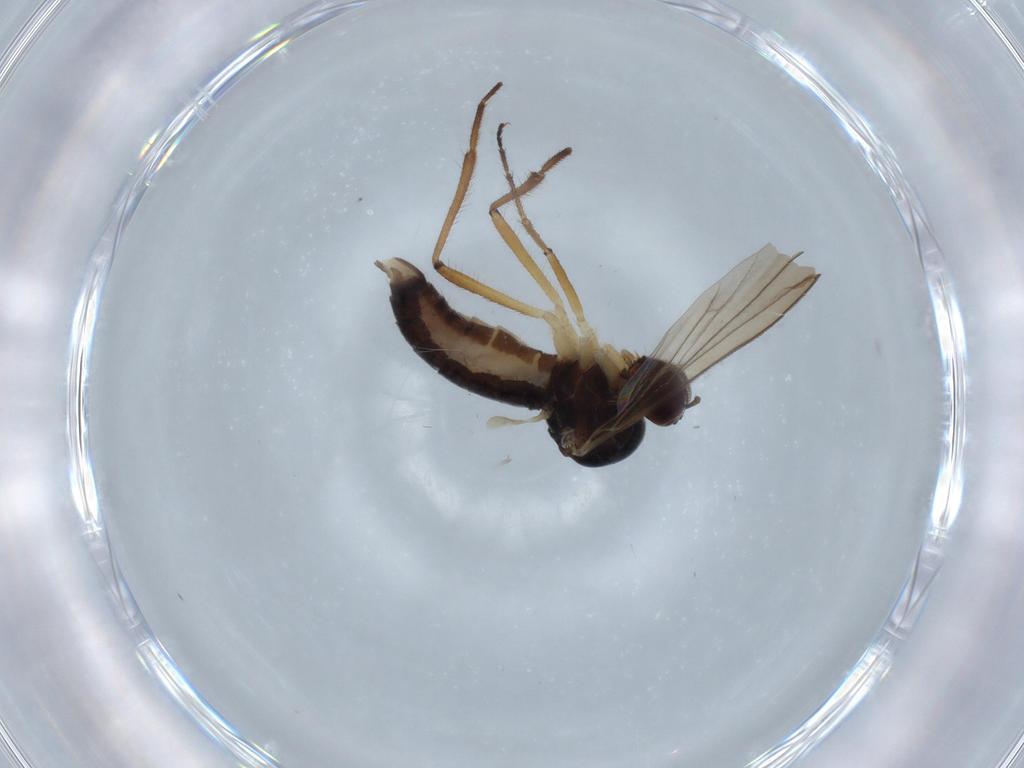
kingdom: Animalia
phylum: Arthropoda
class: Insecta
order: Diptera
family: Hybotidae
